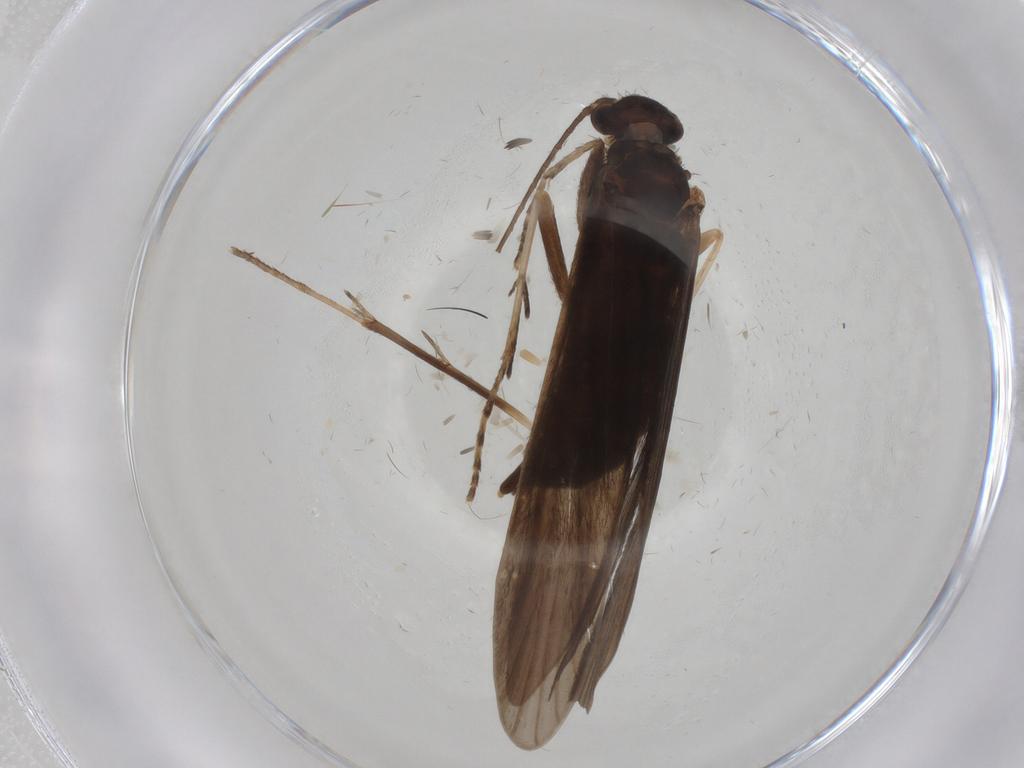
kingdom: Animalia
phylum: Arthropoda
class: Insecta
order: Trichoptera
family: Xiphocentronidae
